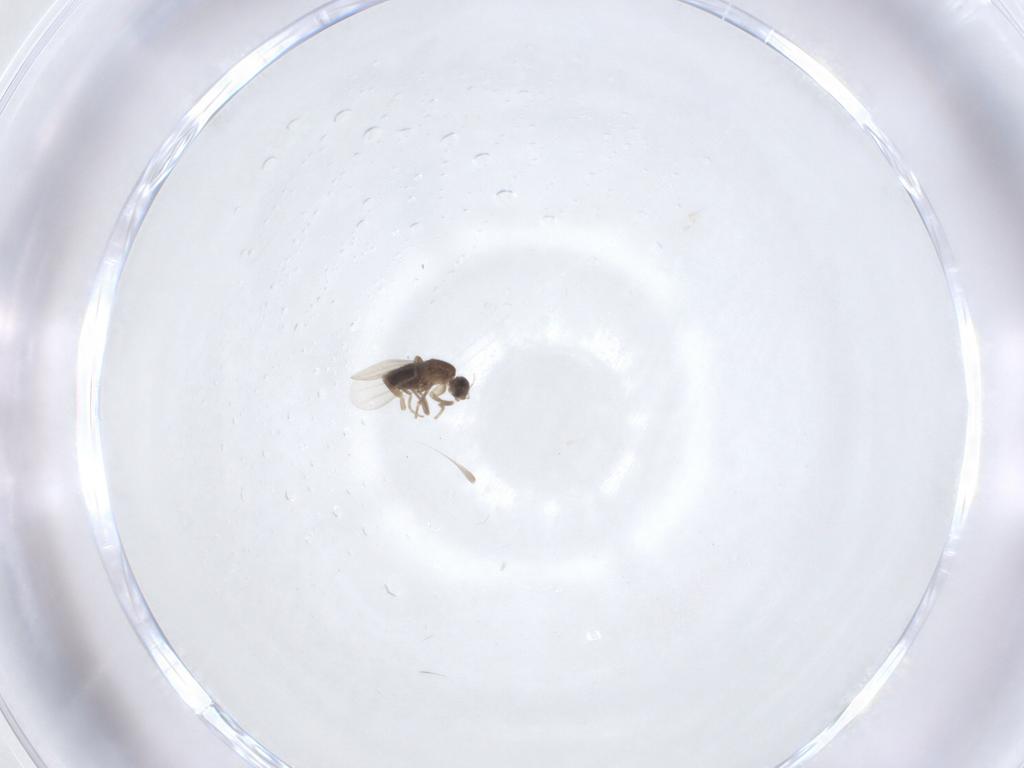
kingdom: Animalia
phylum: Arthropoda
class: Insecta
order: Diptera
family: Phoridae
